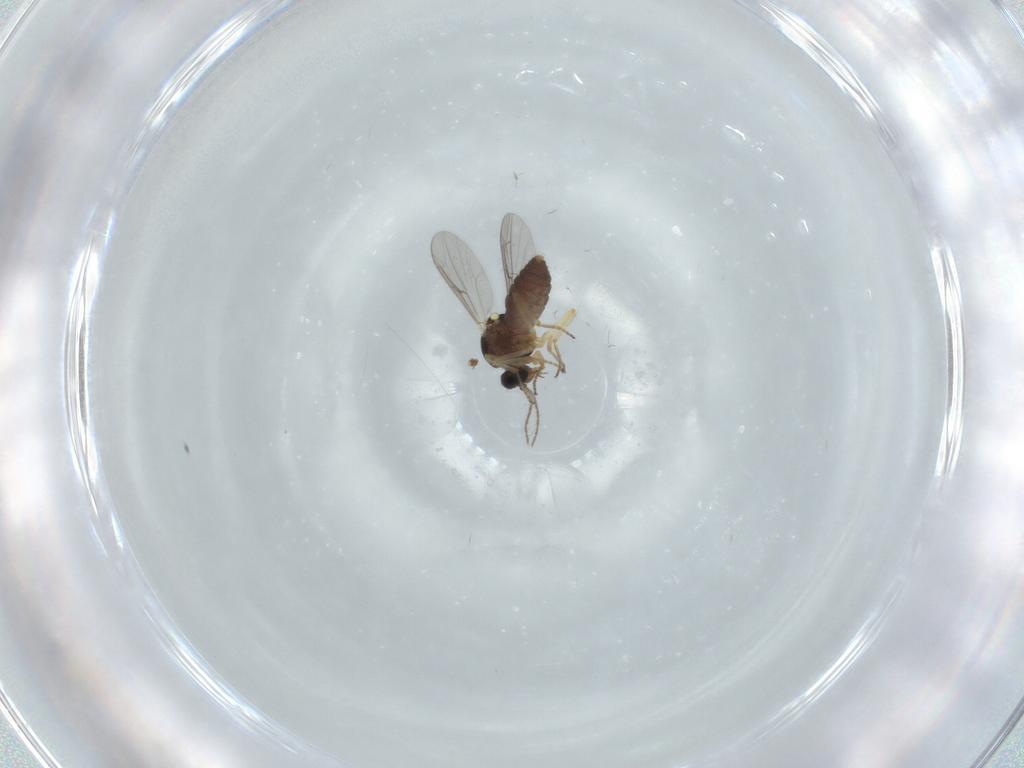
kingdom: Animalia
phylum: Arthropoda
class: Insecta
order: Diptera
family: Ceratopogonidae
